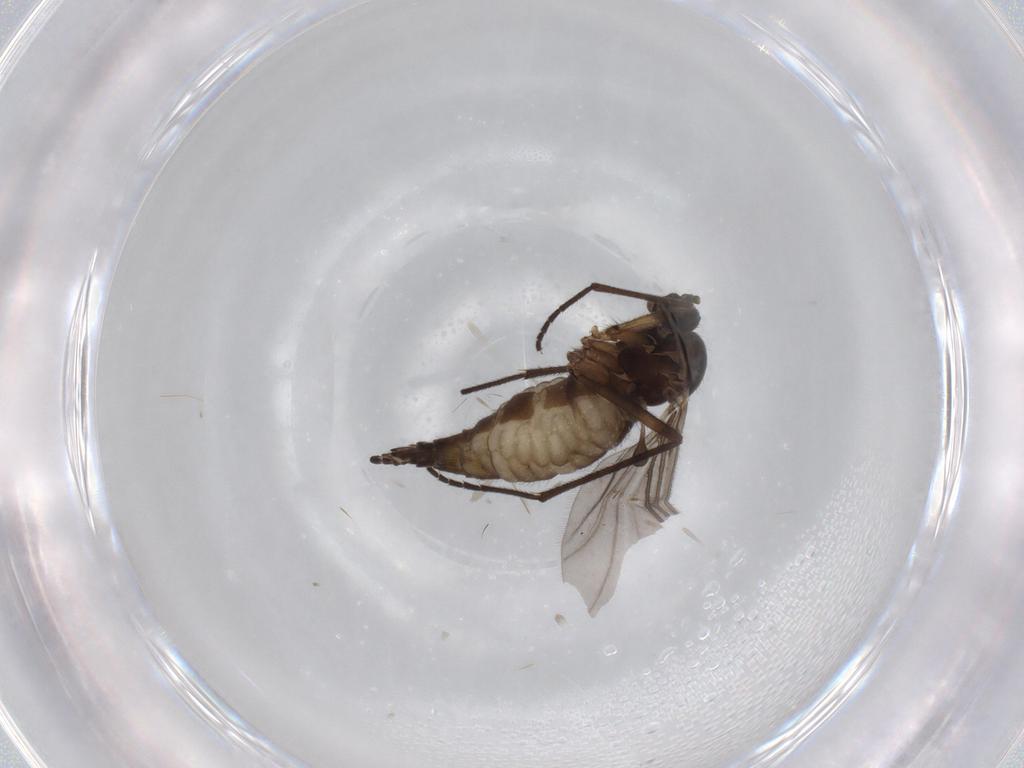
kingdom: Animalia
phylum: Arthropoda
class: Insecta
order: Diptera
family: Sciaridae
